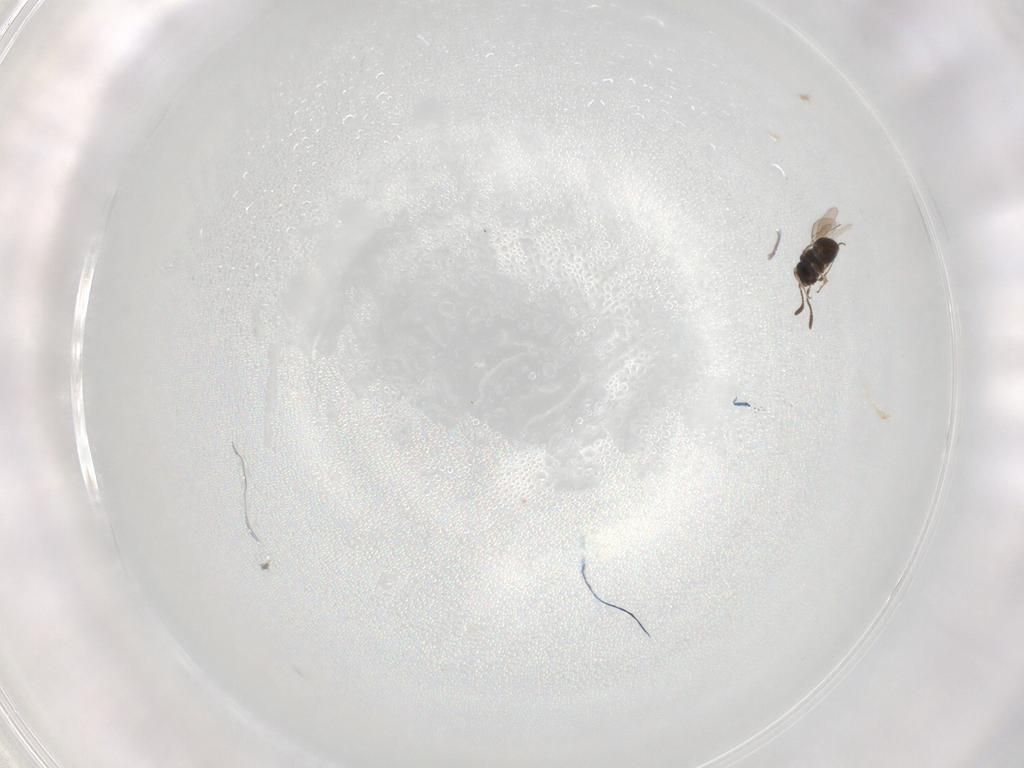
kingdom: Animalia
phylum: Arthropoda
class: Insecta
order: Hymenoptera
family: Scelionidae
